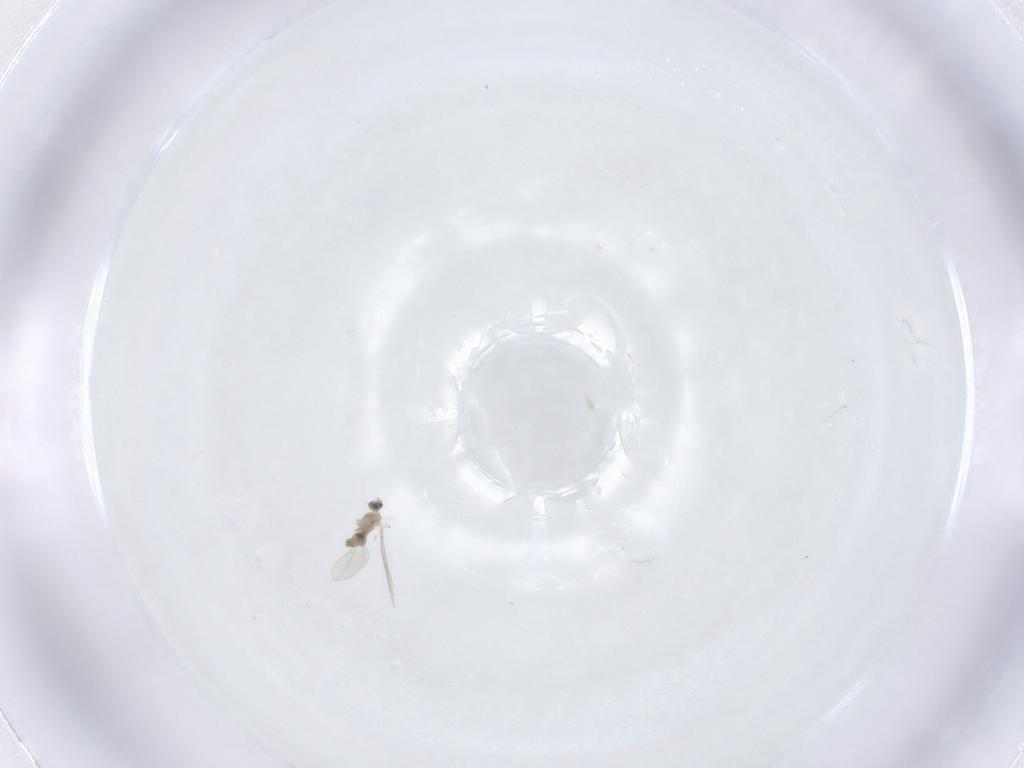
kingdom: Animalia
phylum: Arthropoda
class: Insecta
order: Diptera
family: Cecidomyiidae
